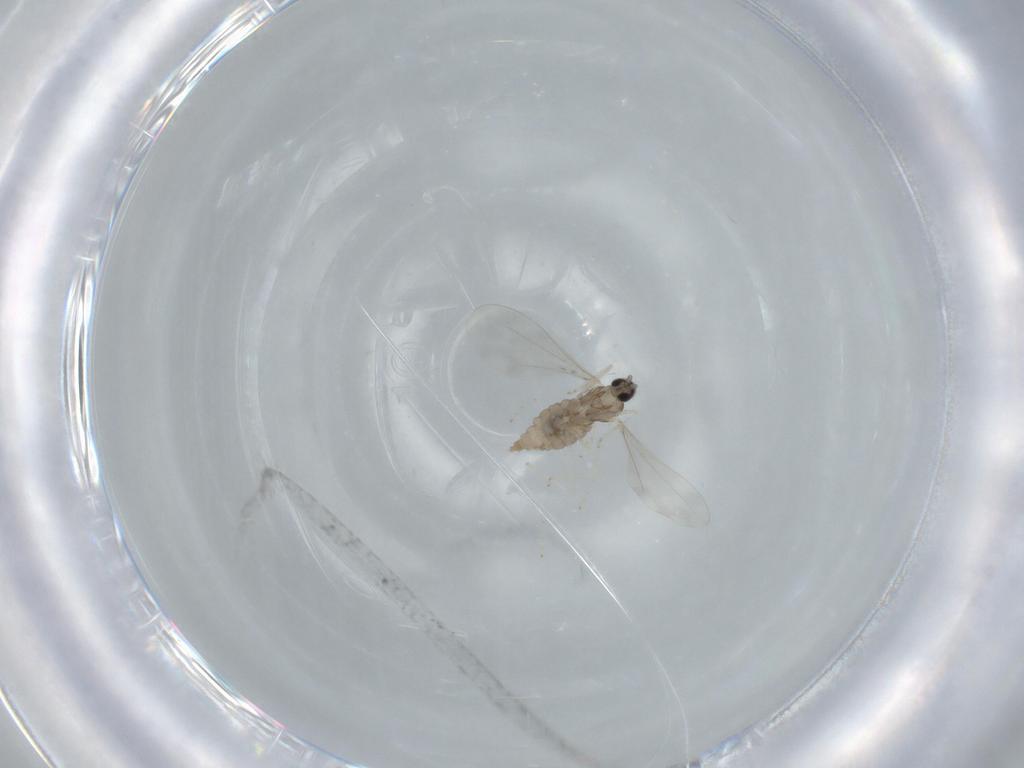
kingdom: Animalia
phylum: Arthropoda
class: Insecta
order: Diptera
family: Cecidomyiidae
